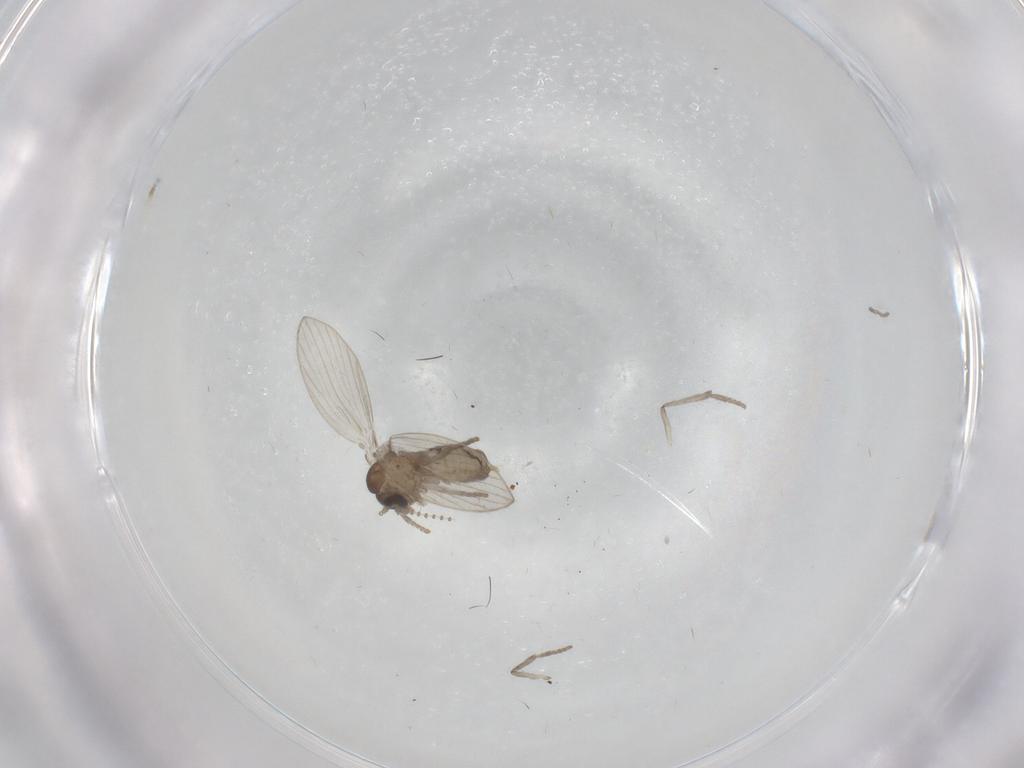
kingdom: Animalia
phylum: Arthropoda
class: Insecta
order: Diptera
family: Psychodidae
